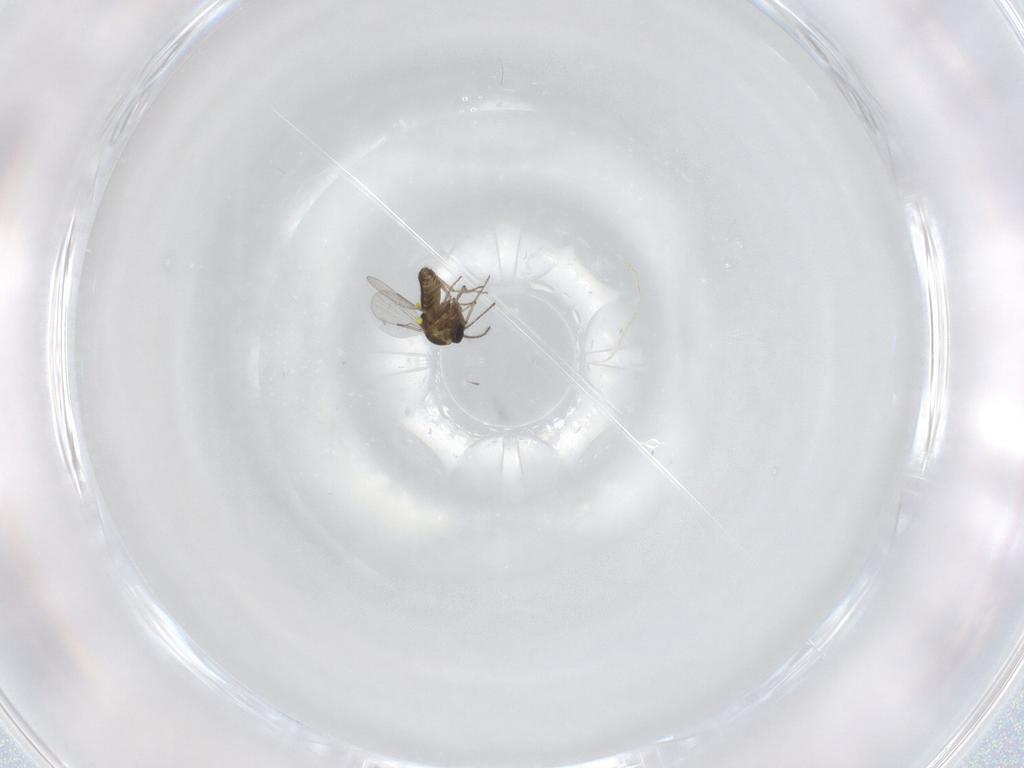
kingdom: Animalia
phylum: Arthropoda
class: Insecta
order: Diptera
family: Ceratopogonidae
